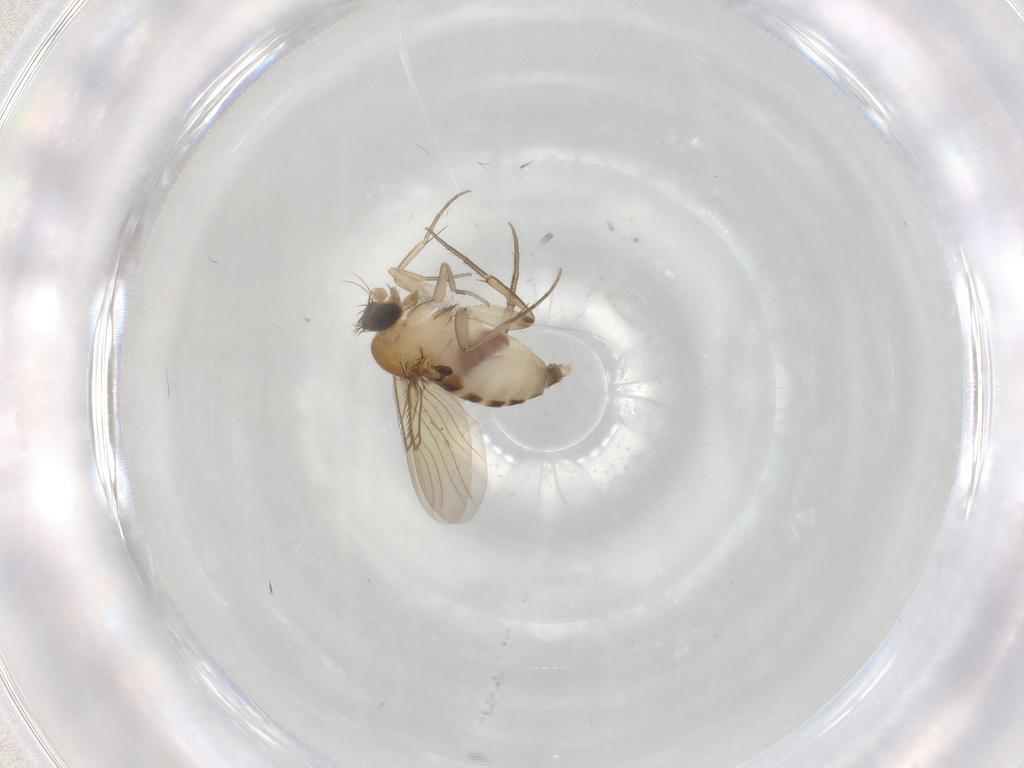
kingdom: Animalia
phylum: Arthropoda
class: Insecta
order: Diptera
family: Phoridae
